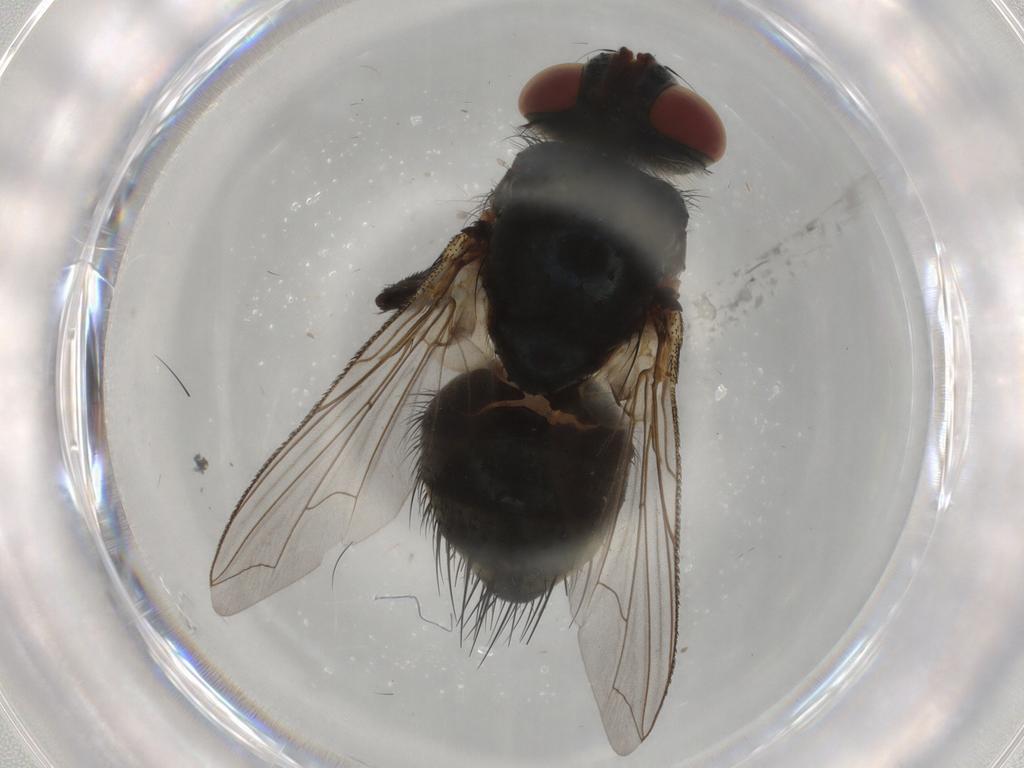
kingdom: Animalia
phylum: Arthropoda
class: Insecta
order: Diptera
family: Tachinidae
